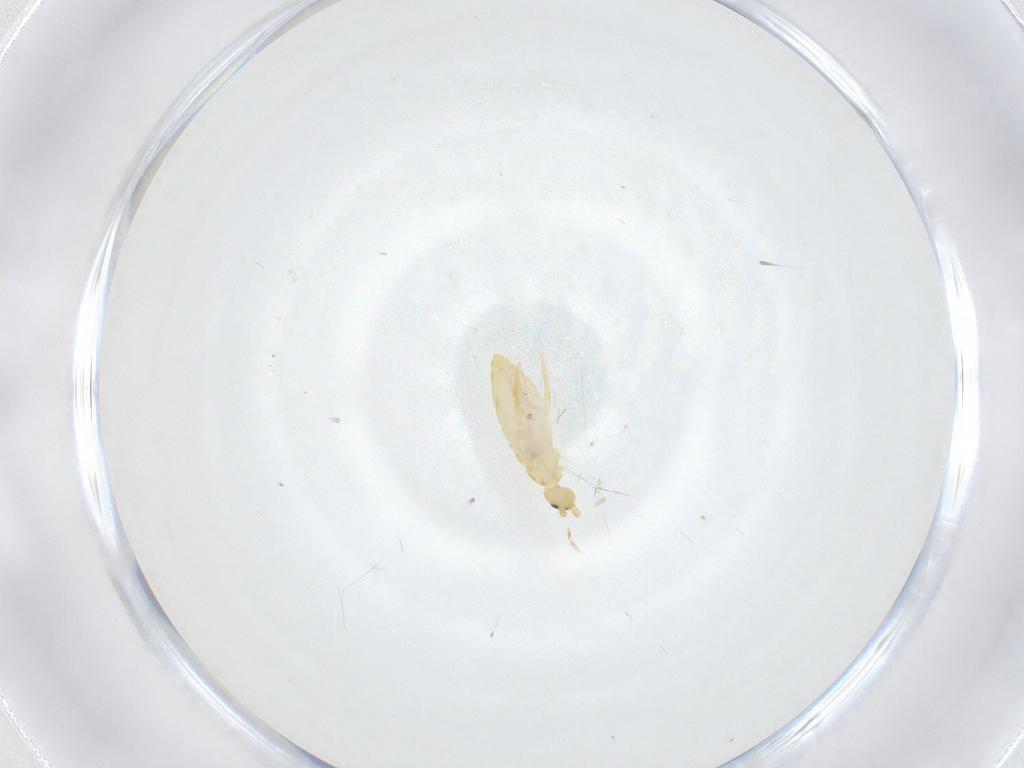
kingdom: Animalia
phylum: Arthropoda
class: Collembola
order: Entomobryomorpha
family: Entomobryidae
